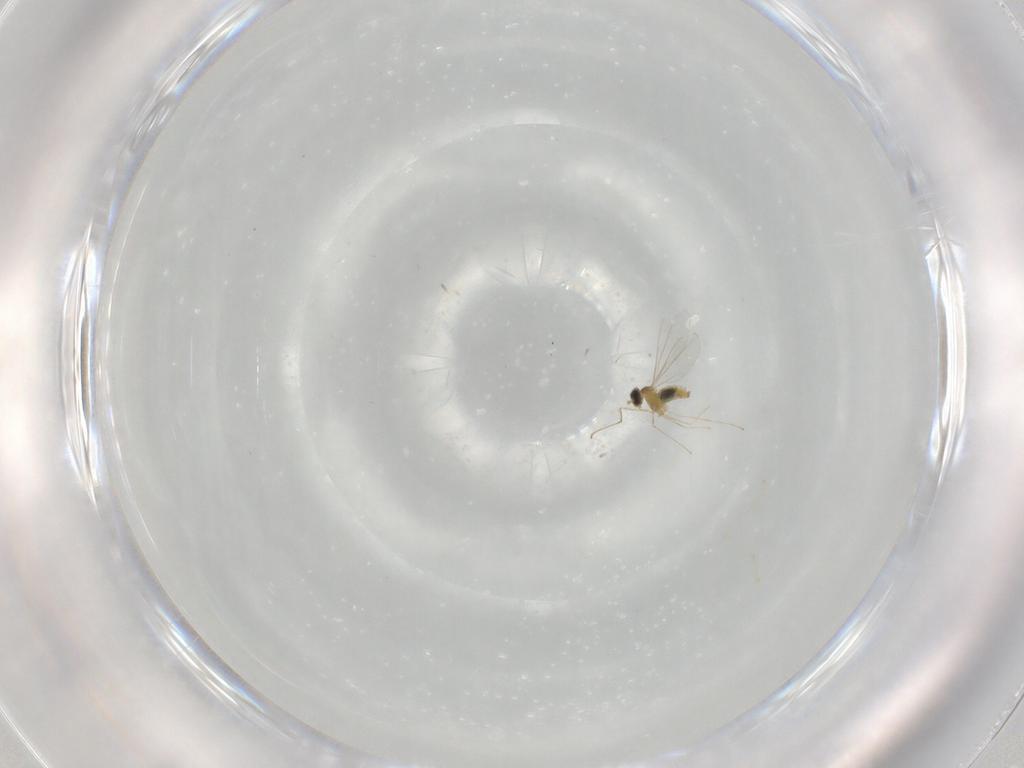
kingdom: Animalia
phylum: Arthropoda
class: Insecta
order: Diptera
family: Cecidomyiidae
